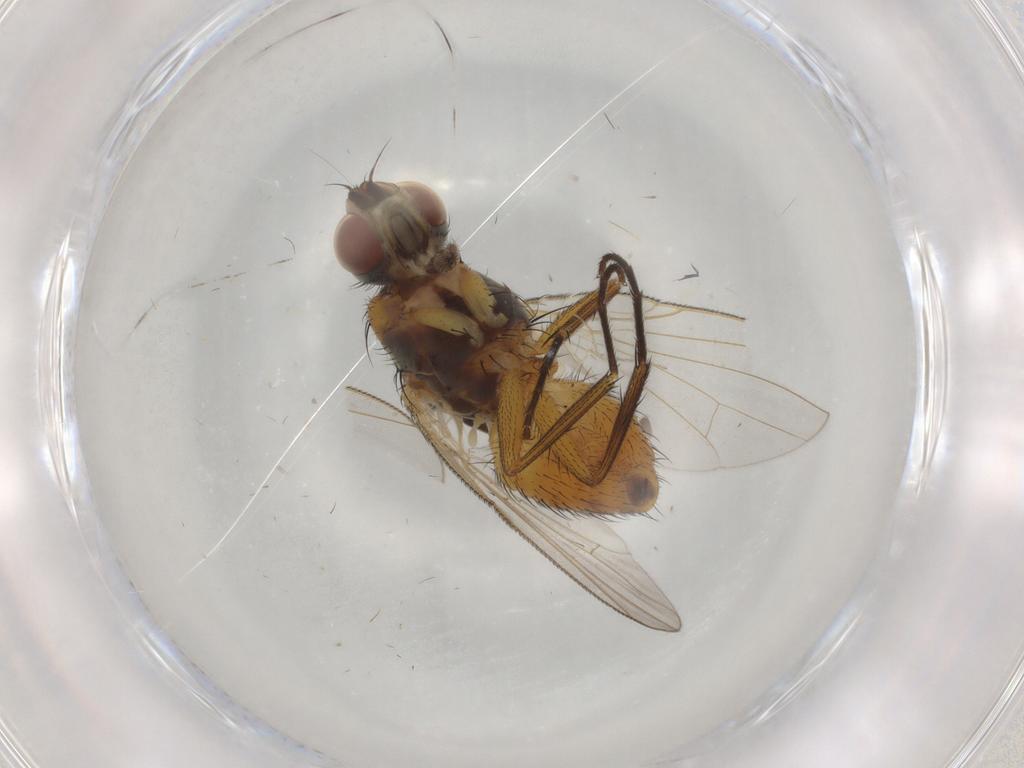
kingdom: Animalia
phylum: Arthropoda
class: Insecta
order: Diptera
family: Muscidae
